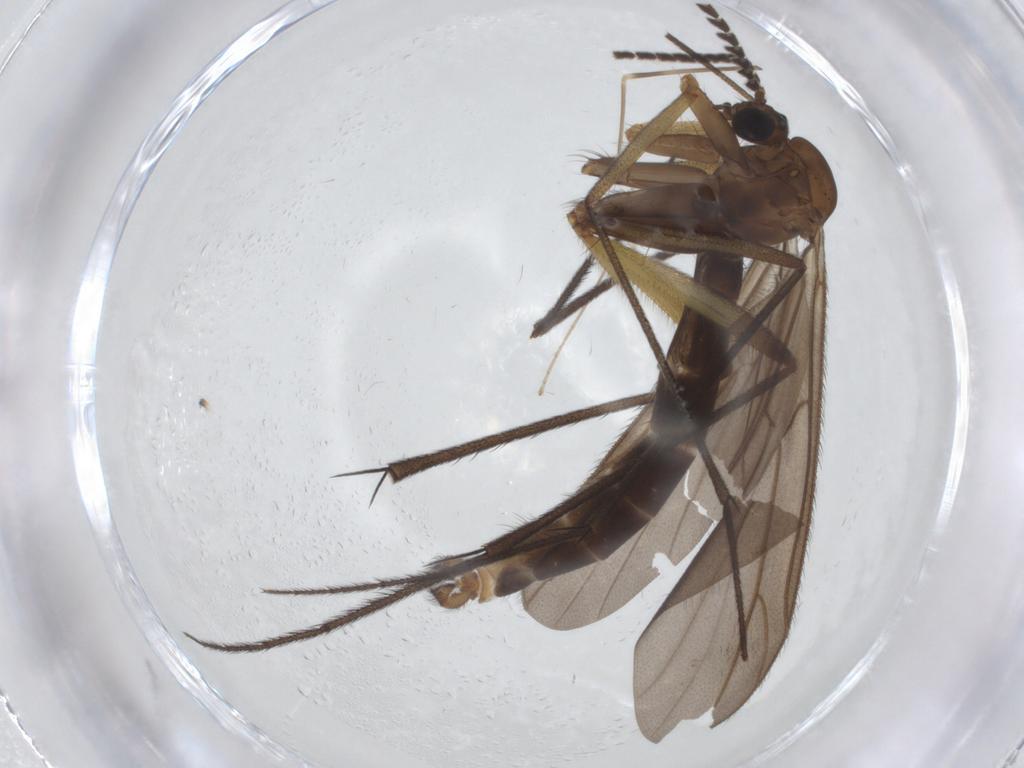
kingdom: Animalia
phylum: Arthropoda
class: Insecta
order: Diptera
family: Ditomyiidae
